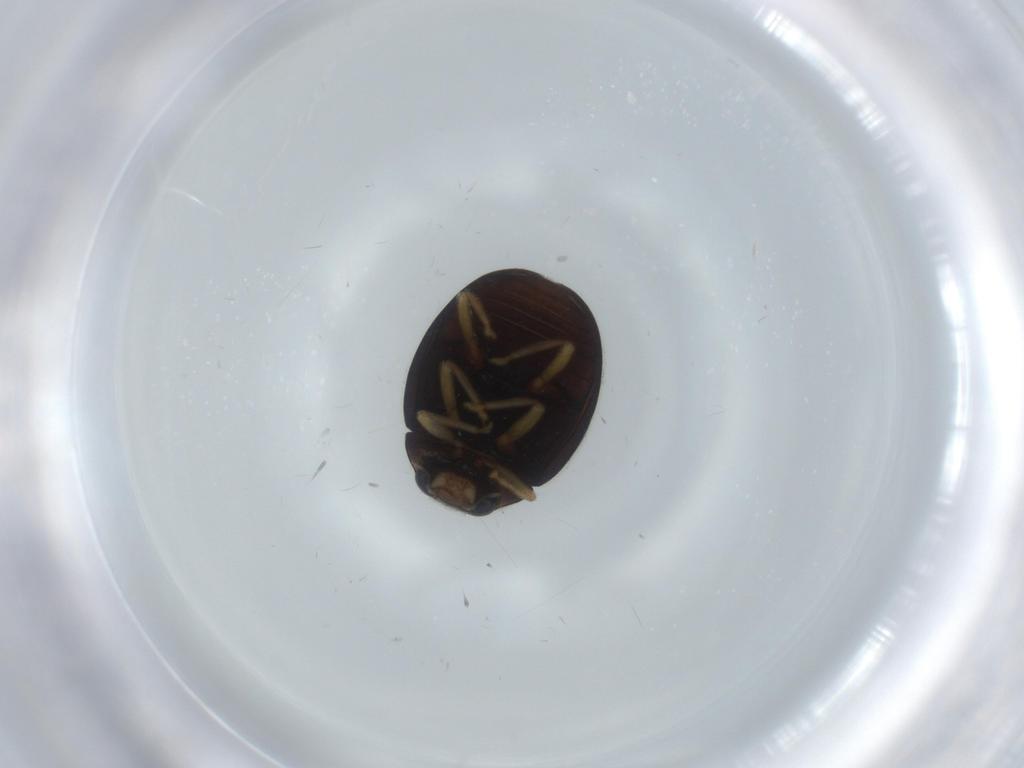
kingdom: Animalia
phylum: Arthropoda
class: Insecta
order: Coleoptera
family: Coccinellidae
